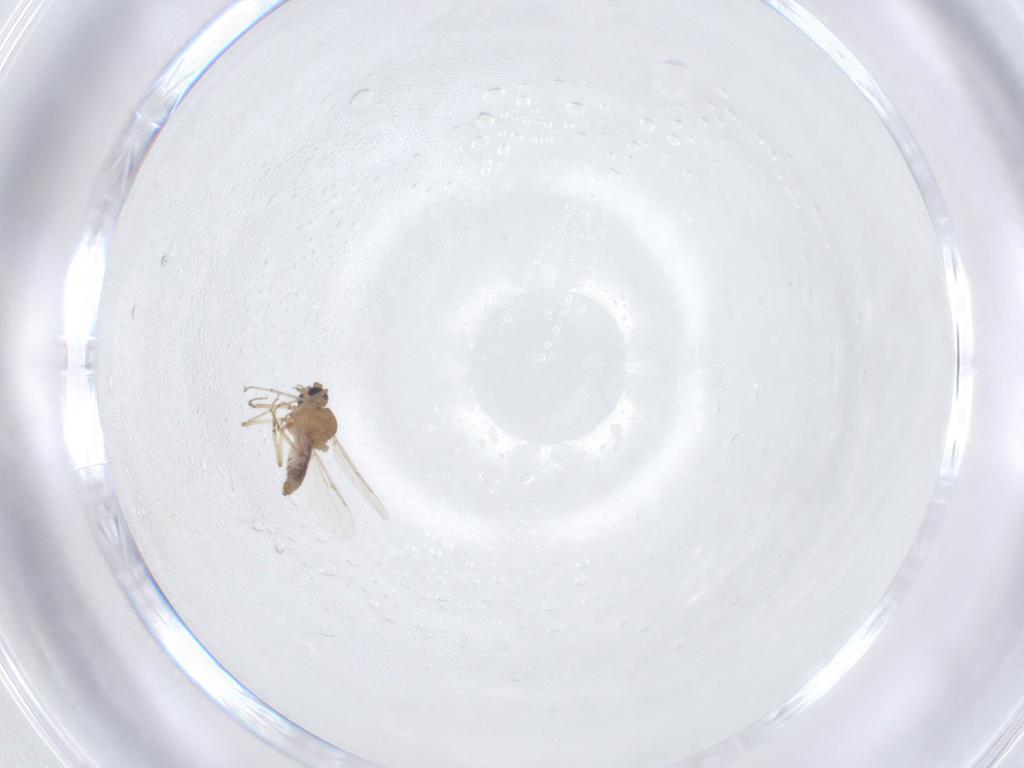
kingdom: Animalia
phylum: Arthropoda
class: Insecta
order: Diptera
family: Ceratopogonidae
